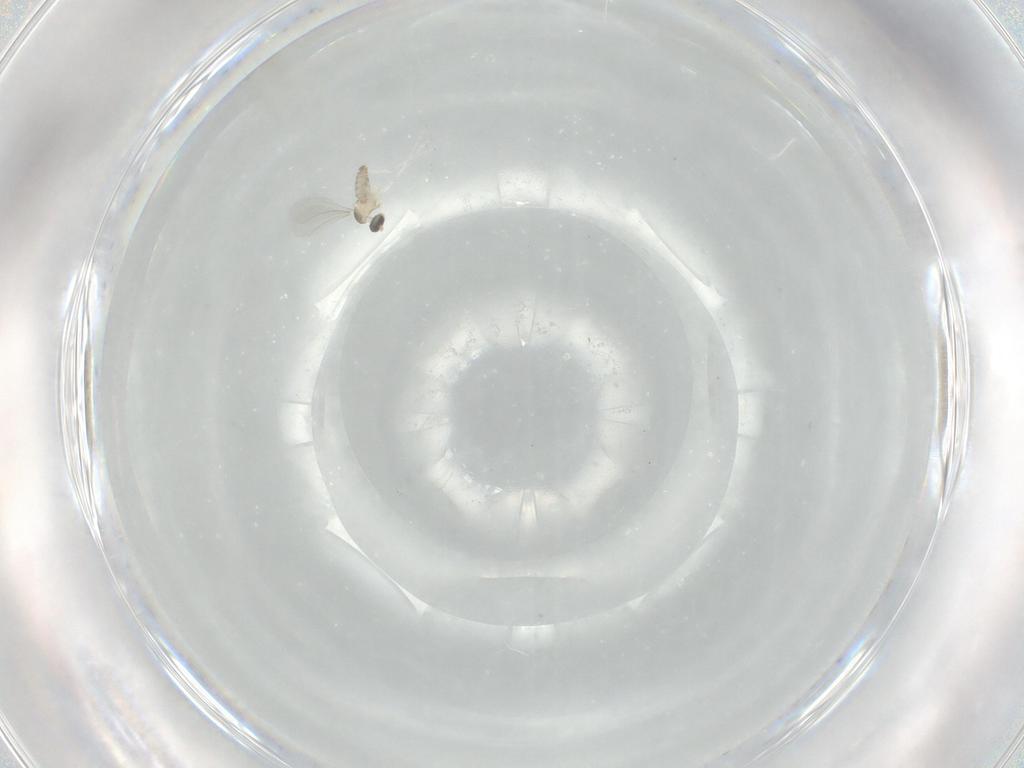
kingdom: Animalia
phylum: Arthropoda
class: Insecta
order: Diptera
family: Cecidomyiidae
